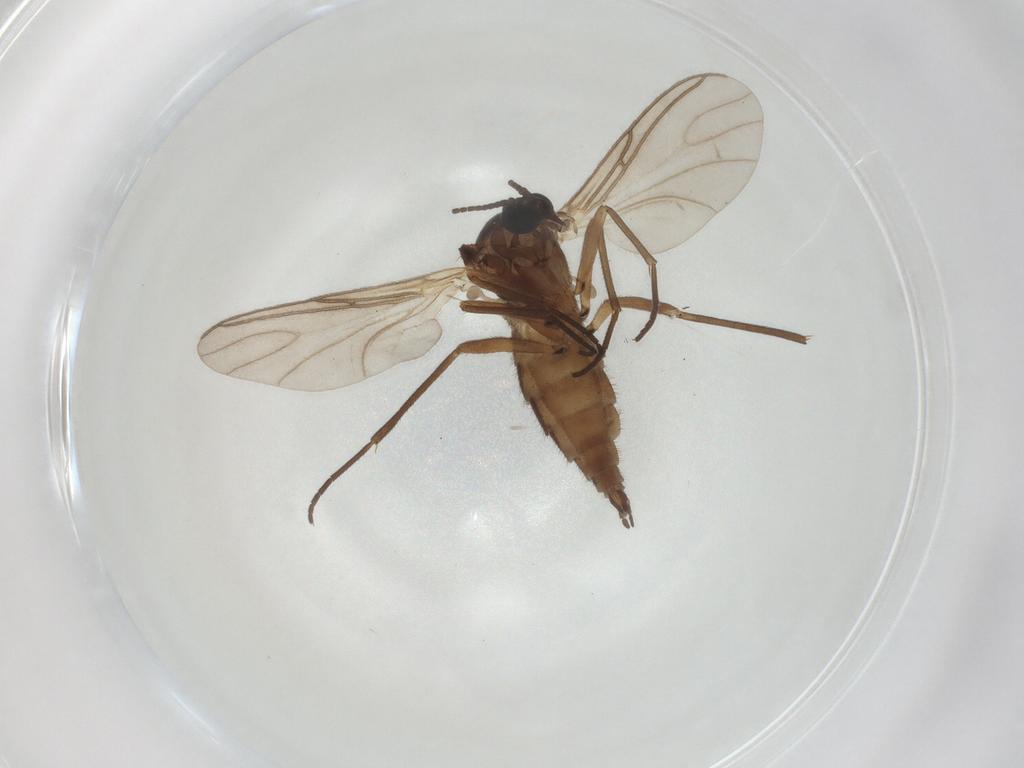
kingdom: Animalia
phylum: Arthropoda
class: Insecta
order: Diptera
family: Sciaridae
